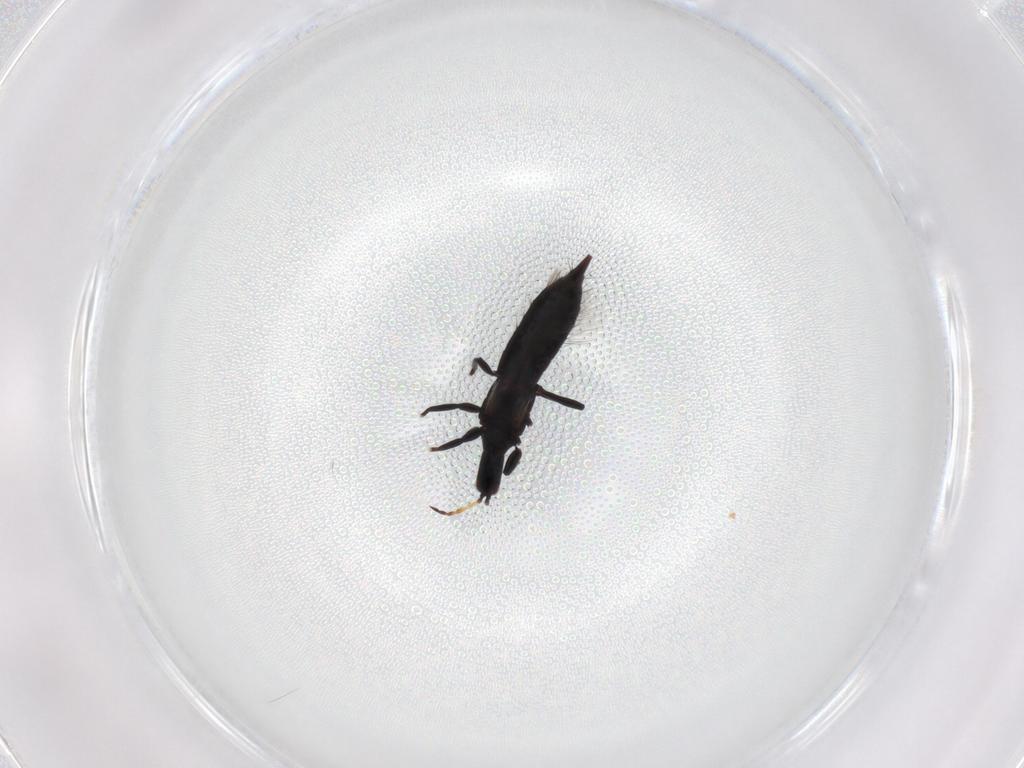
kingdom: Animalia
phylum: Arthropoda
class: Insecta
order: Thysanoptera
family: Phlaeothripidae
